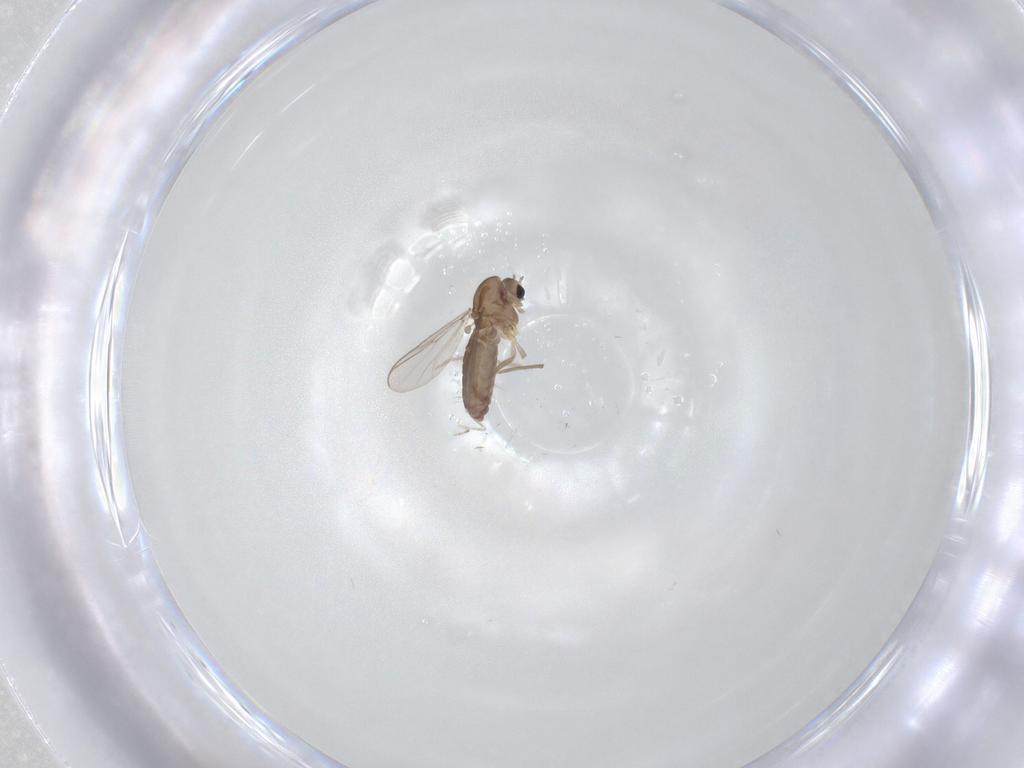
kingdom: Animalia
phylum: Arthropoda
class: Insecta
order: Diptera
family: Chironomidae
